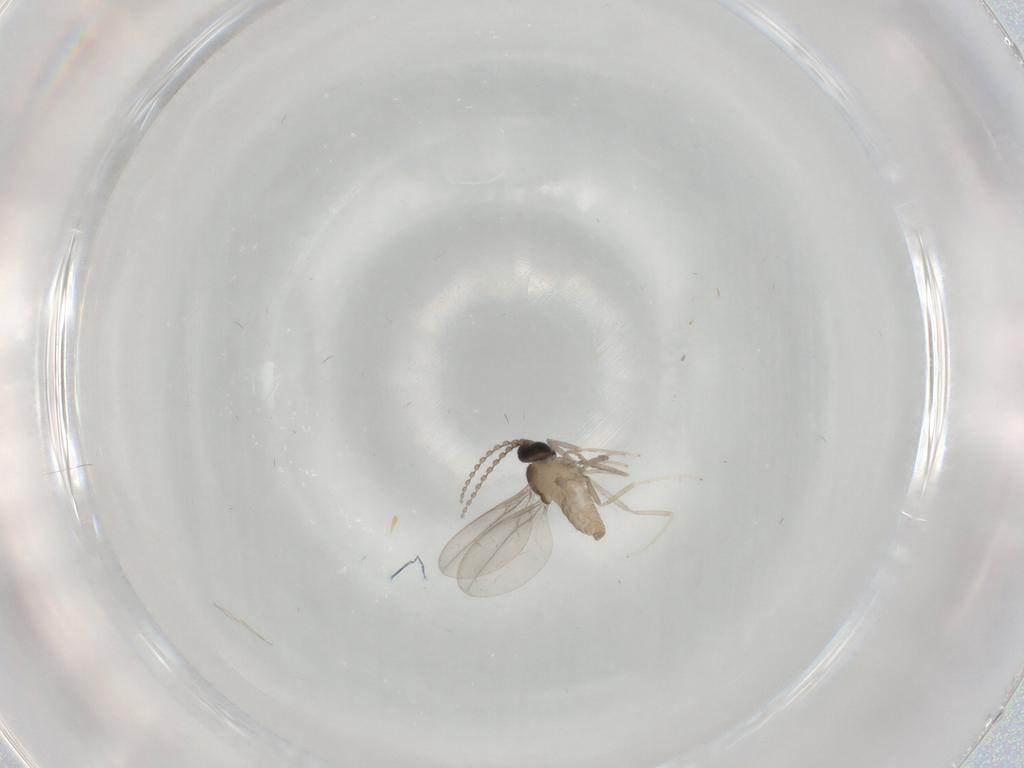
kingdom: Animalia
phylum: Arthropoda
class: Insecta
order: Diptera
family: Cecidomyiidae
